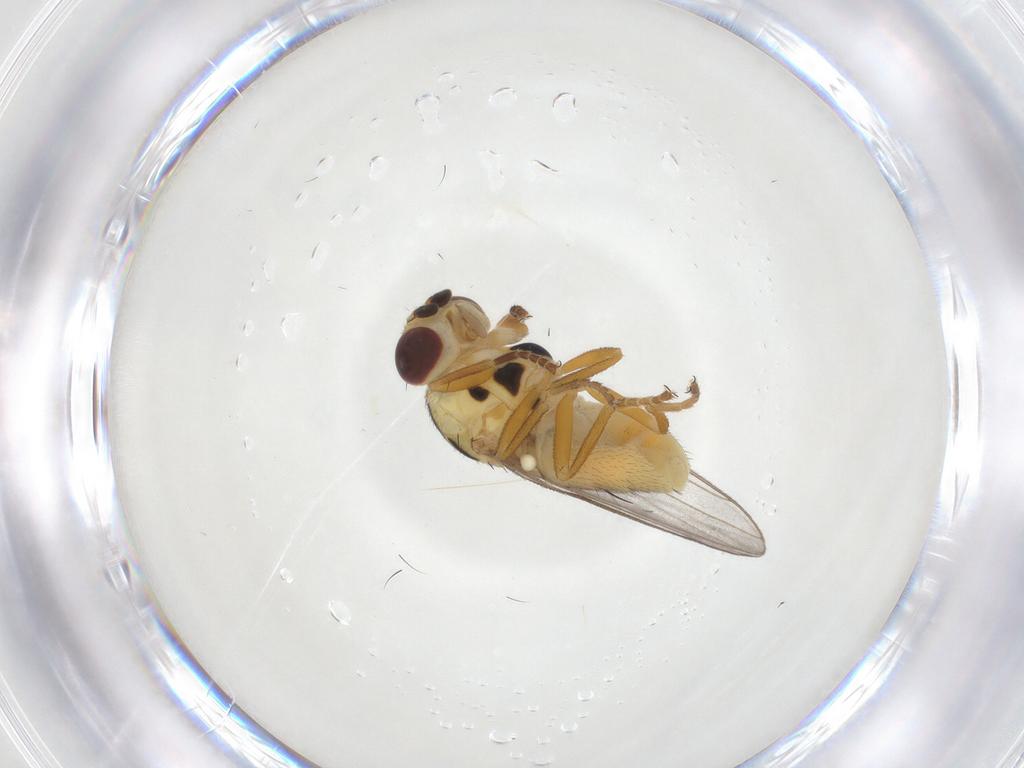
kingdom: Animalia
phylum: Arthropoda
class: Insecta
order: Diptera
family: Chloropidae
